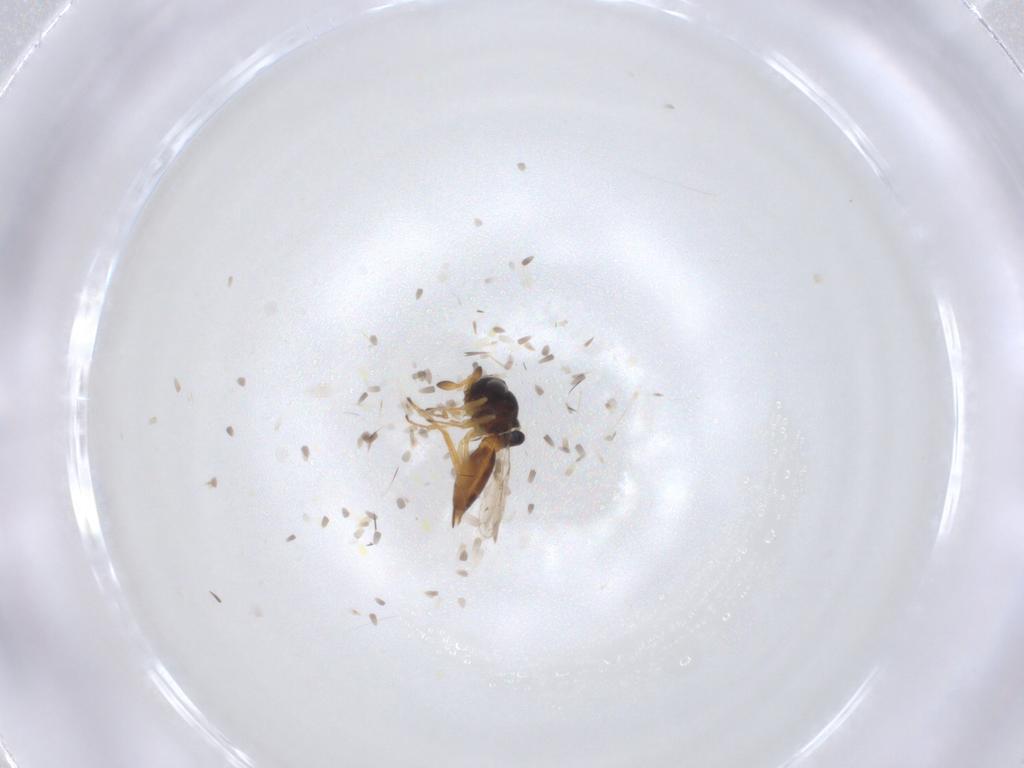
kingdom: Animalia
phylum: Arthropoda
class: Insecta
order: Hymenoptera
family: Scelionidae
